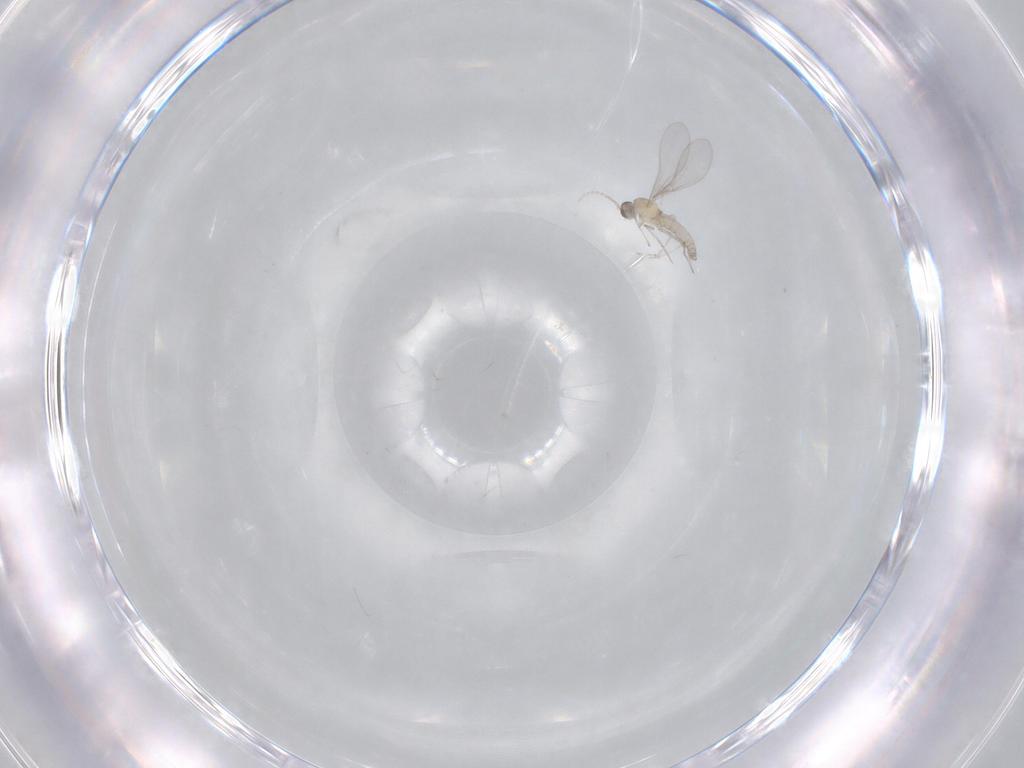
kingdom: Animalia
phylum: Arthropoda
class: Insecta
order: Diptera
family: Cecidomyiidae
